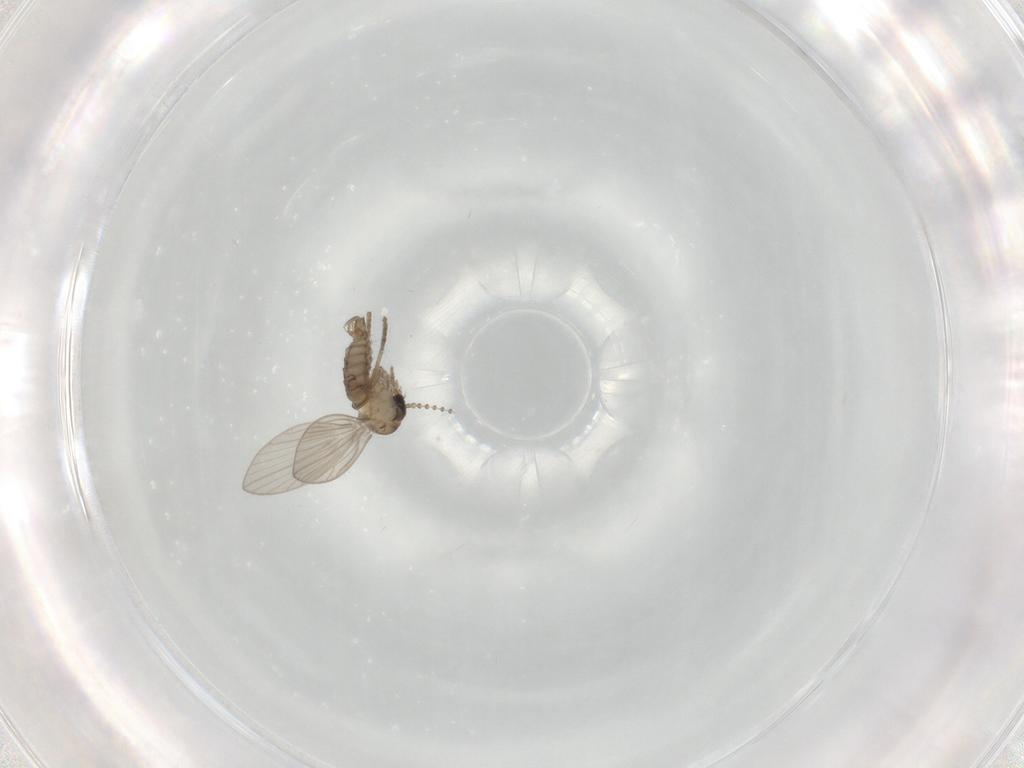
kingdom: Animalia
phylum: Arthropoda
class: Insecta
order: Diptera
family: Psychodidae
